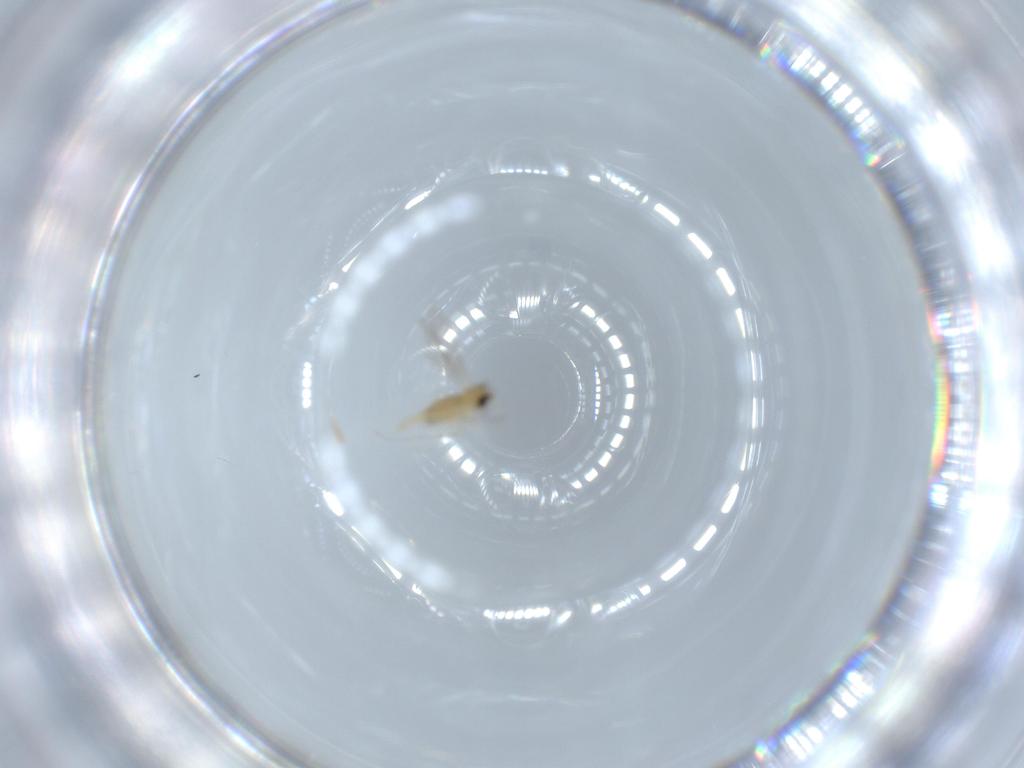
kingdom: Animalia
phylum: Arthropoda
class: Insecta
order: Diptera
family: Cecidomyiidae
